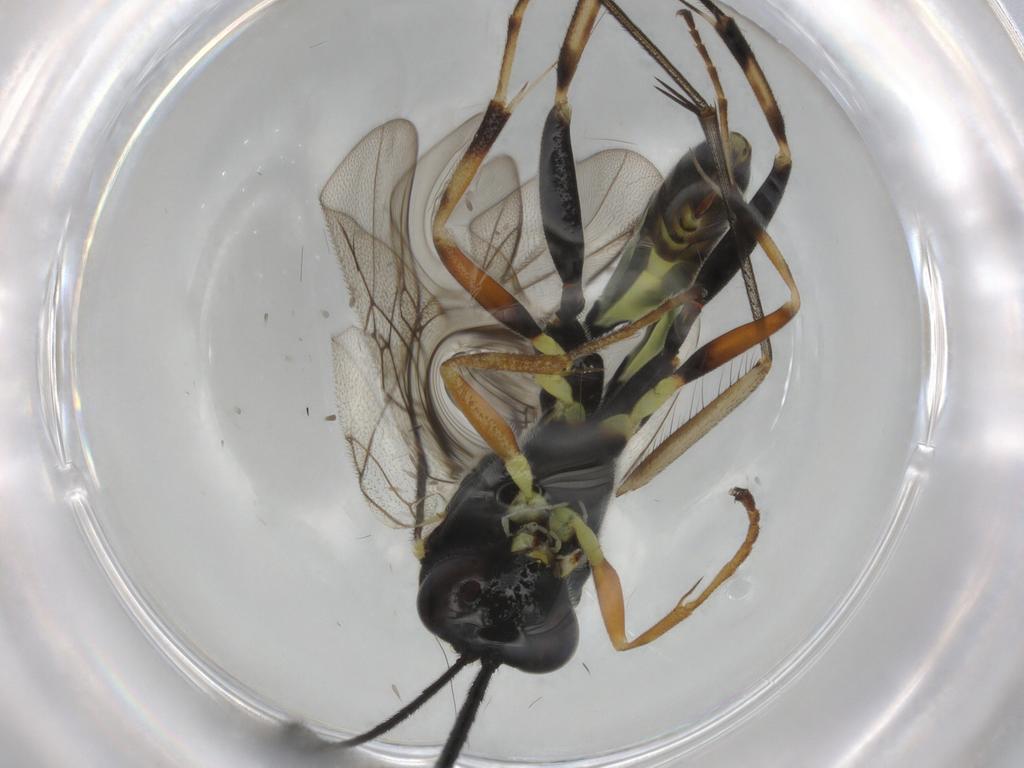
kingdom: Animalia
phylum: Arthropoda
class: Insecta
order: Hymenoptera
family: Ichneumonidae
